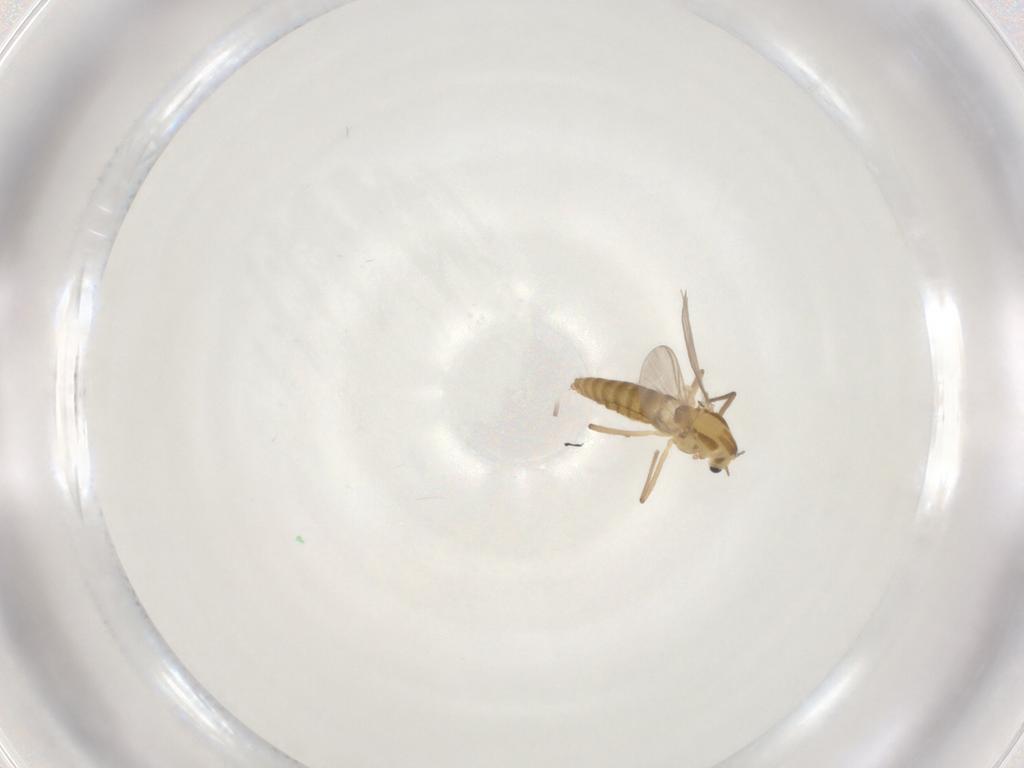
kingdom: Animalia
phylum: Arthropoda
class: Insecta
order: Diptera
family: Chironomidae
